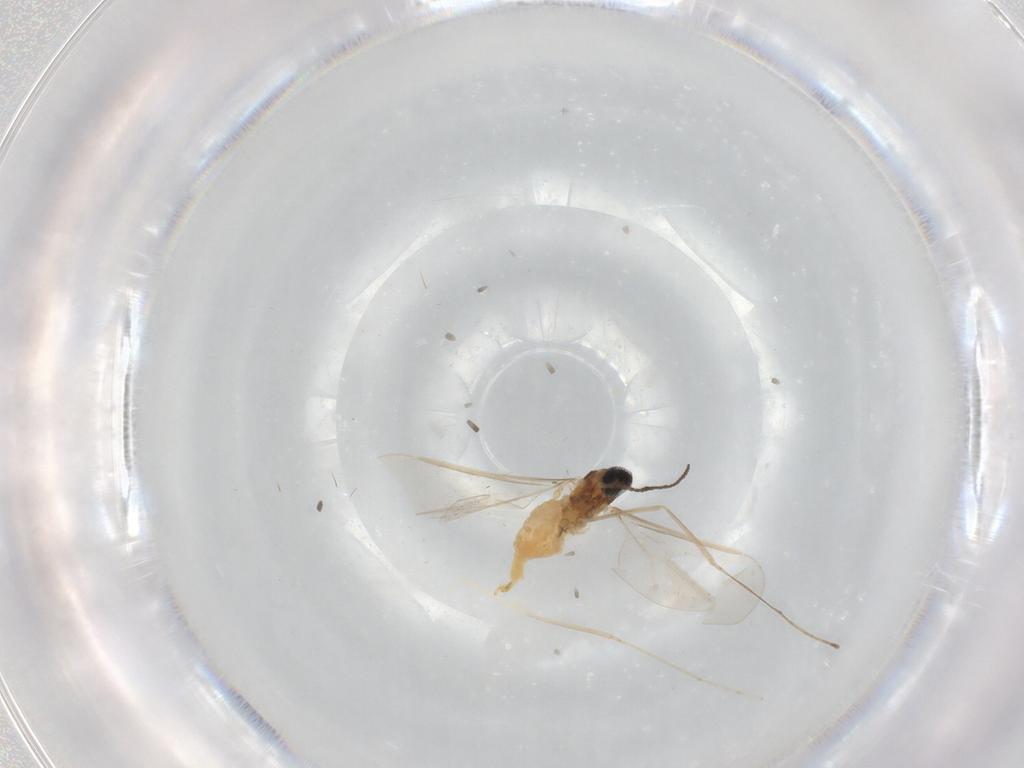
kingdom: Animalia
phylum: Arthropoda
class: Insecta
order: Diptera
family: Cecidomyiidae
